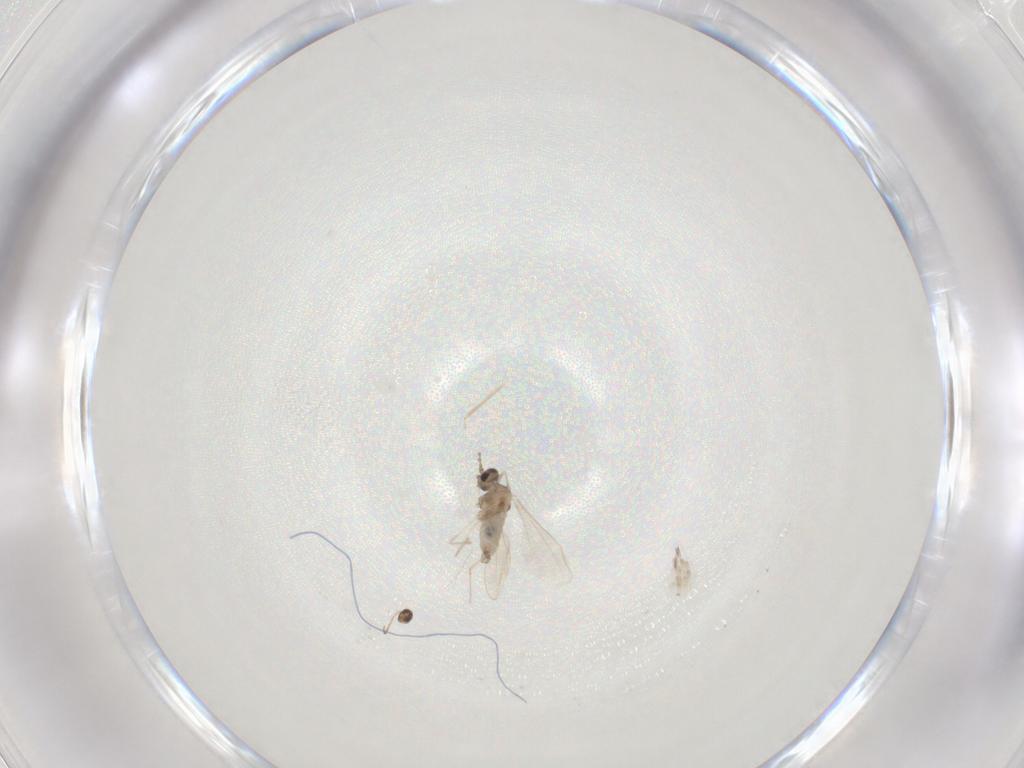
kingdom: Animalia
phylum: Arthropoda
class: Insecta
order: Diptera
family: Cecidomyiidae
